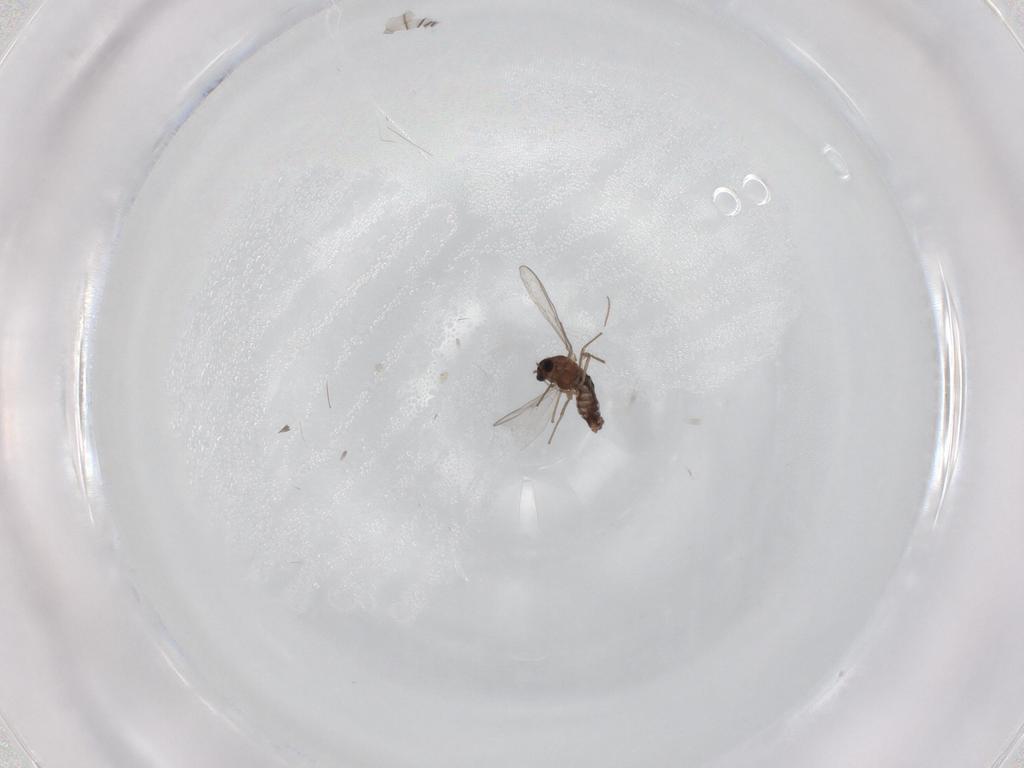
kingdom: Animalia
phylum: Arthropoda
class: Insecta
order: Diptera
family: Chironomidae
